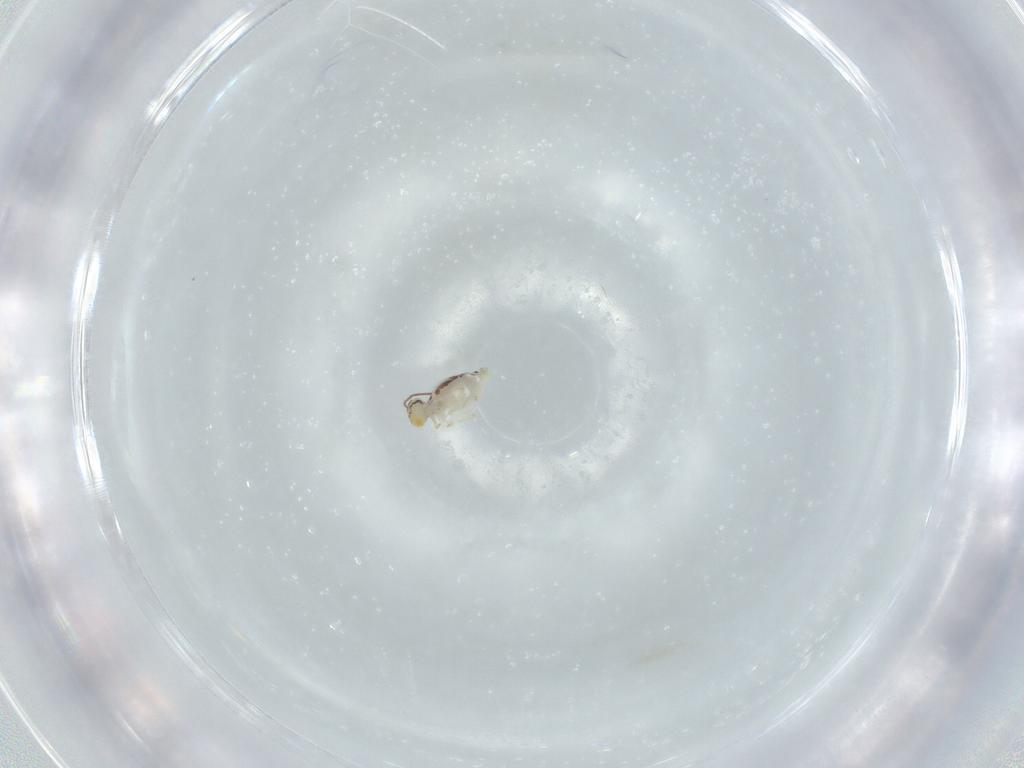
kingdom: Animalia
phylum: Arthropoda
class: Collembola
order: Symphypleona
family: Bourletiellidae
